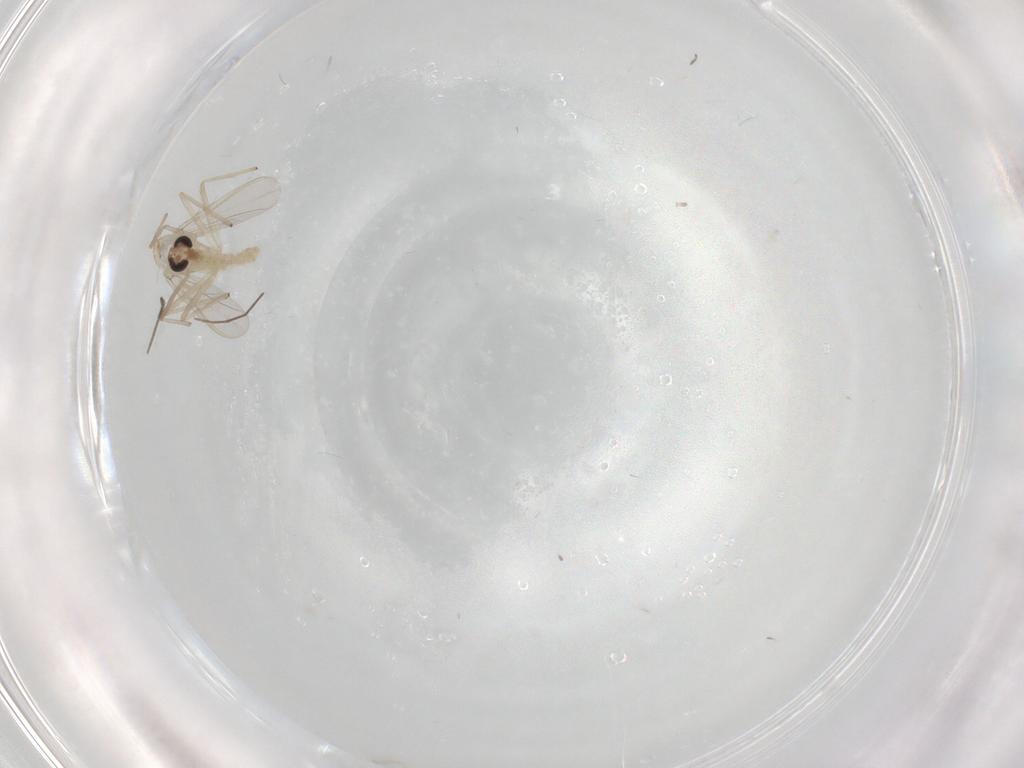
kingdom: Animalia
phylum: Arthropoda
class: Insecta
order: Diptera
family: Chironomidae
